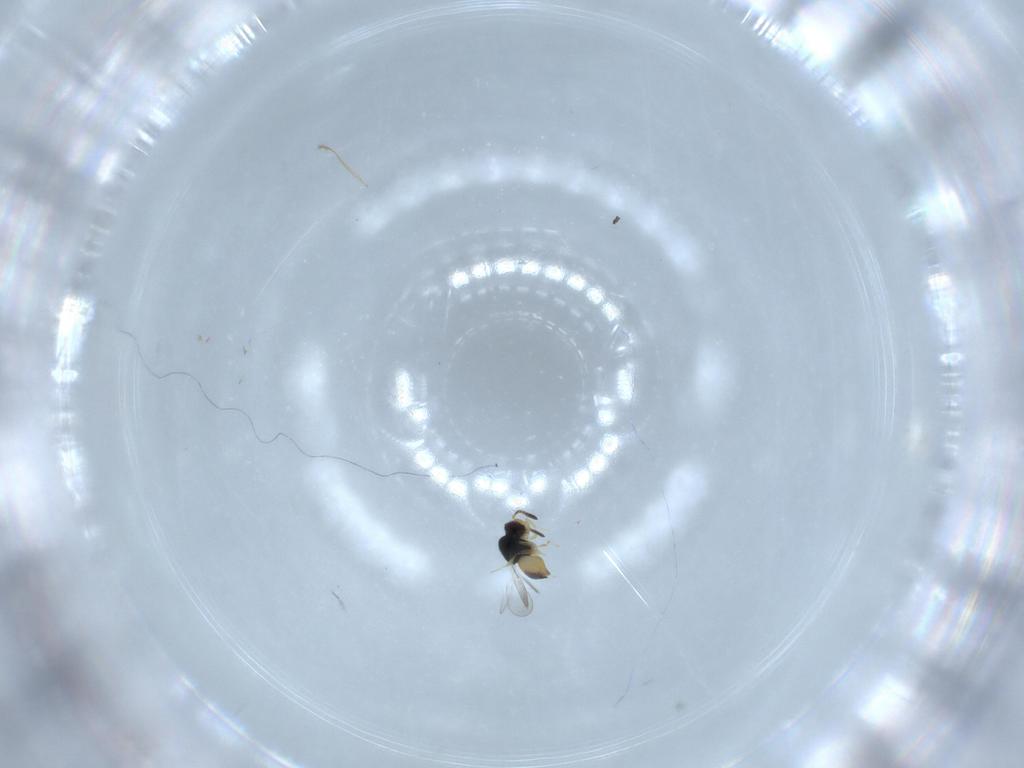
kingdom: Animalia
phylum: Arthropoda
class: Insecta
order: Hymenoptera
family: Ceraphronidae
